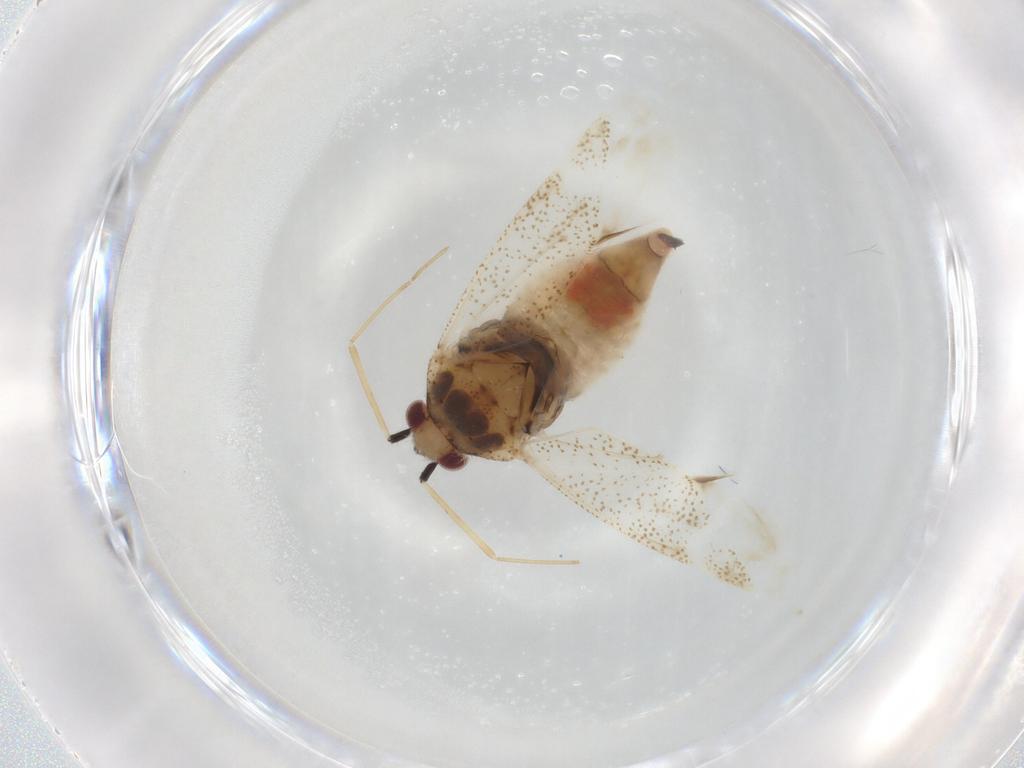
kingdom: Animalia
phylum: Arthropoda
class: Insecta
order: Hemiptera
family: Miridae
